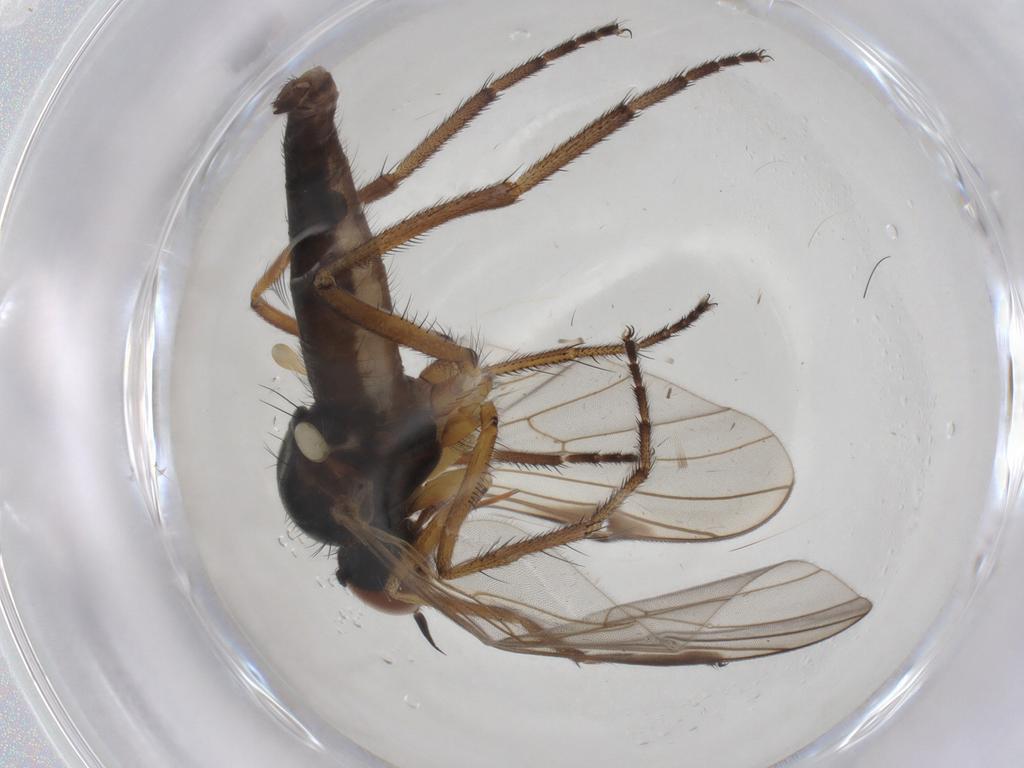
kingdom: Animalia
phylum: Arthropoda
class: Insecta
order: Diptera
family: Empididae
